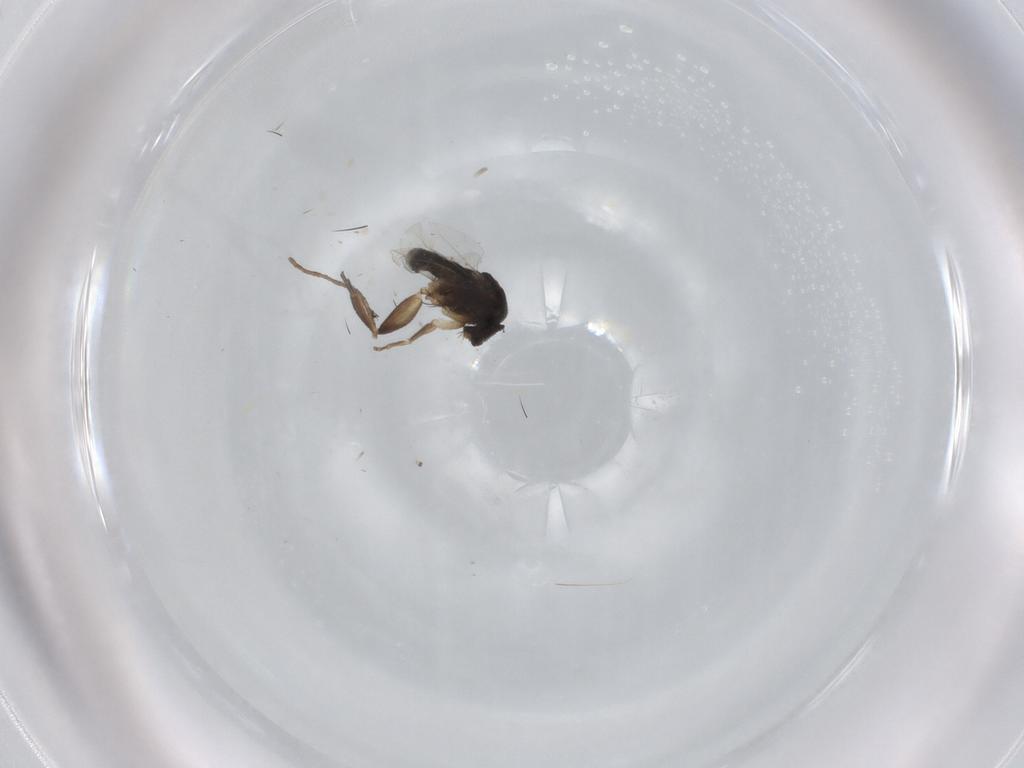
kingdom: Animalia
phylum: Arthropoda
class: Insecta
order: Diptera
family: Phoridae
